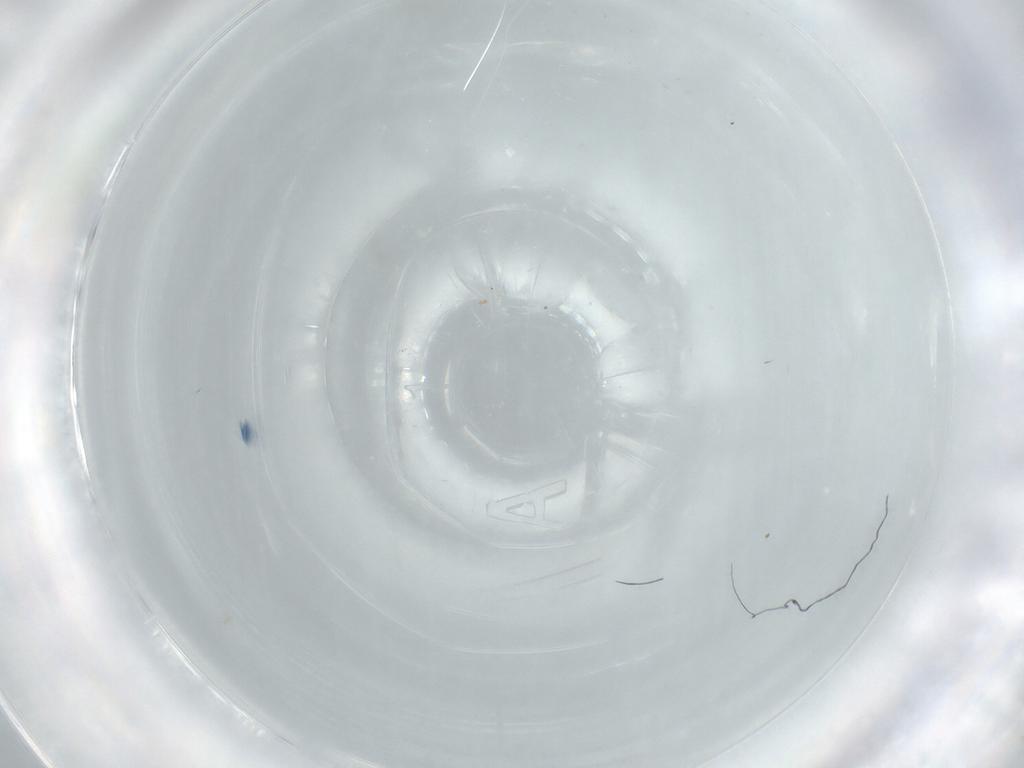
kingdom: Animalia
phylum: Arthropoda
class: Insecta
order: Diptera
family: Cecidomyiidae
